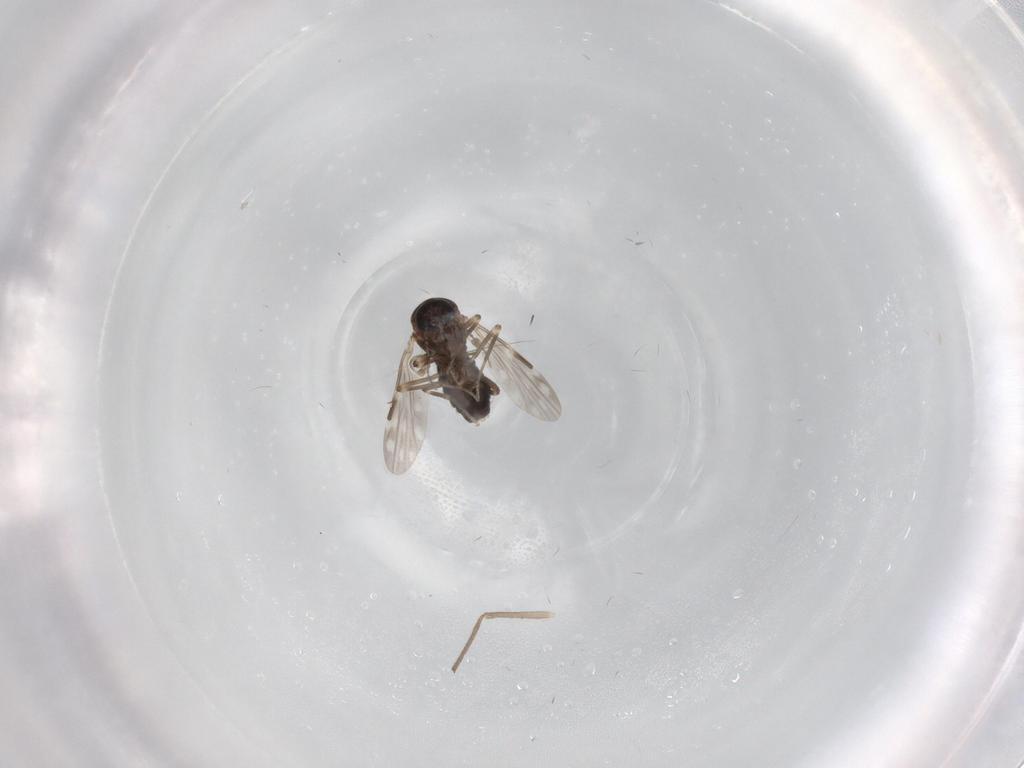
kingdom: Animalia
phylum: Arthropoda
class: Insecta
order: Diptera
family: Chironomidae
